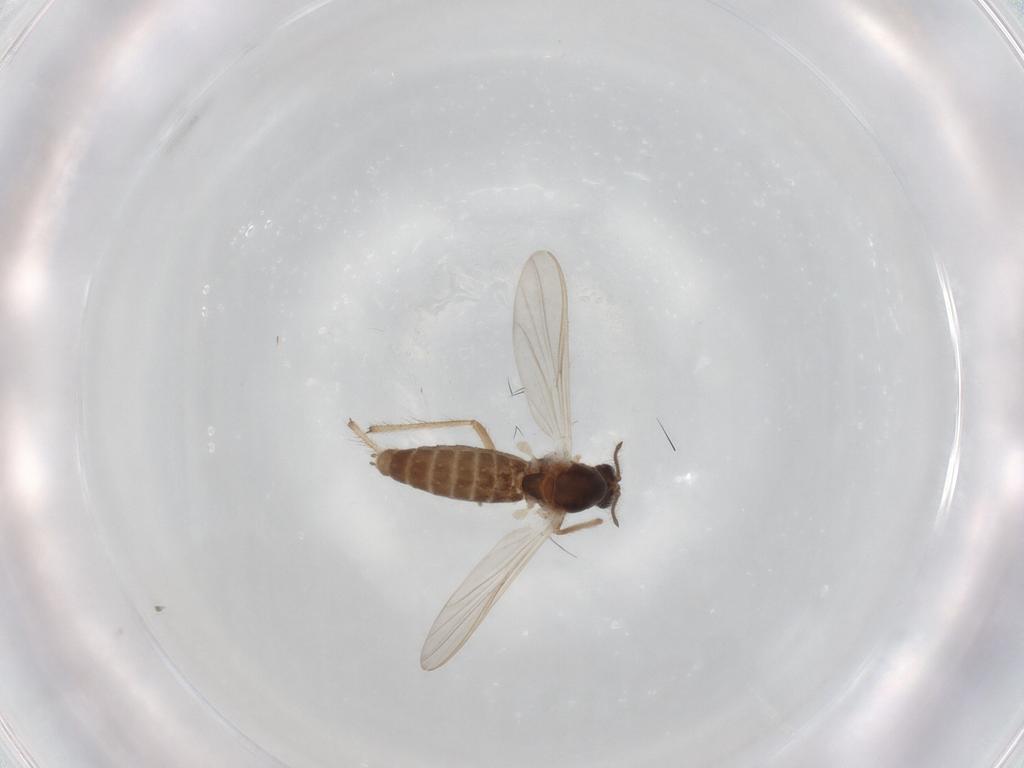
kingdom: Animalia
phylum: Arthropoda
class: Insecta
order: Diptera
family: Chironomidae
